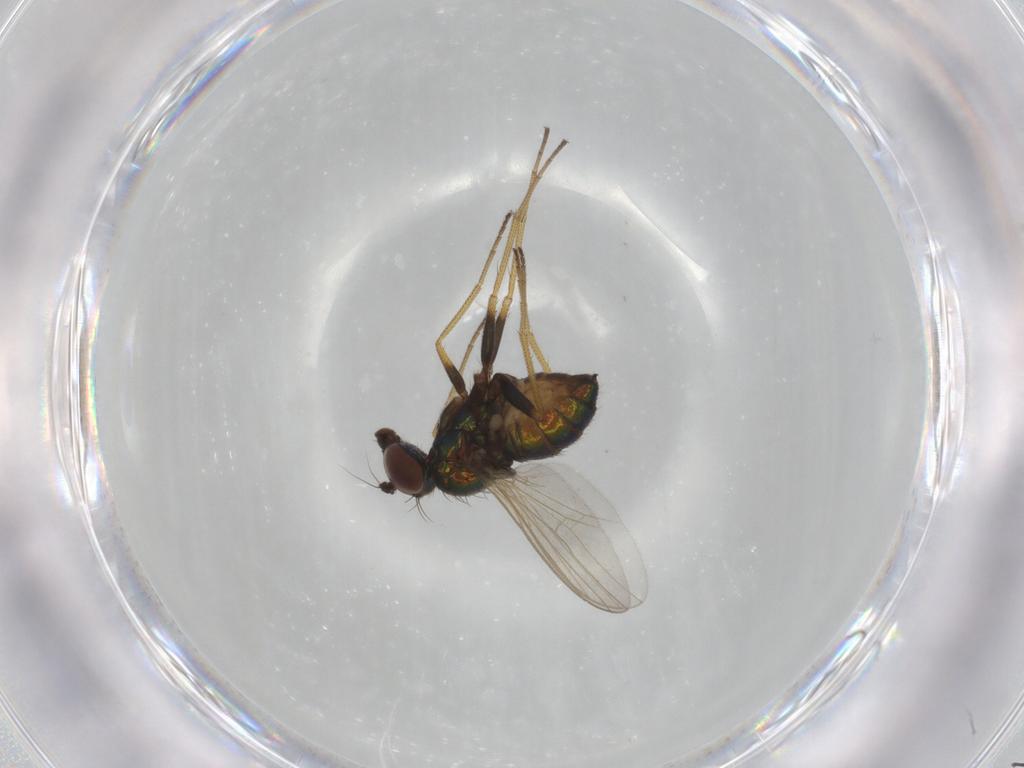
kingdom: Animalia
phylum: Arthropoda
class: Insecta
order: Diptera
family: Dolichopodidae
